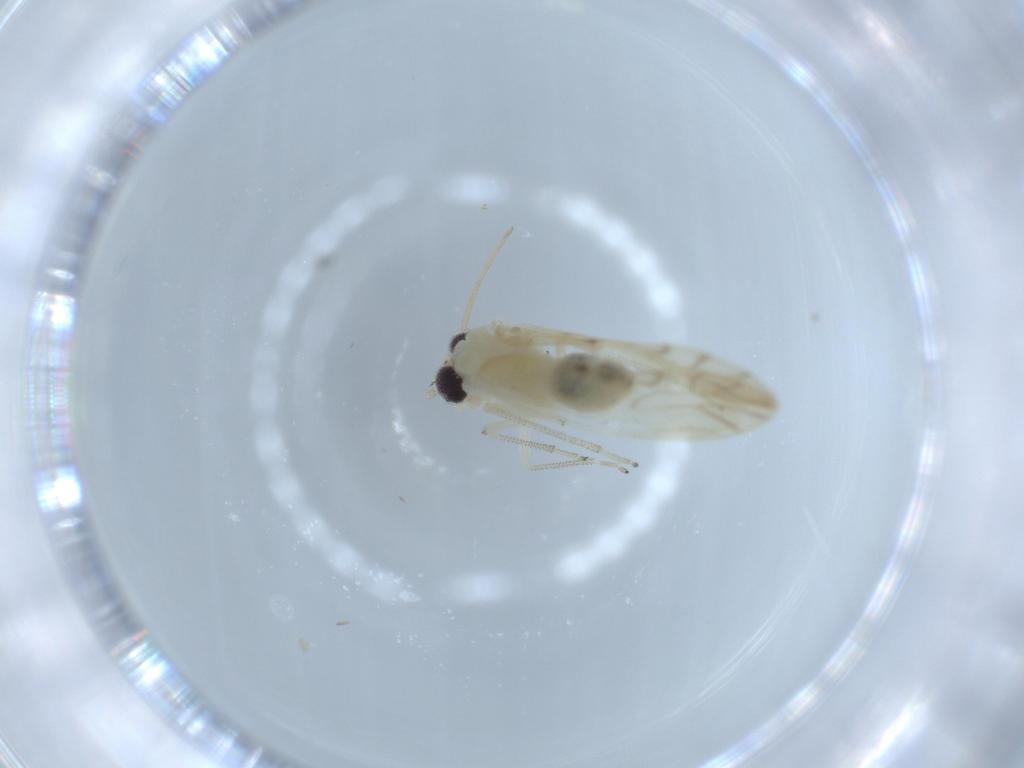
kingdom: Animalia
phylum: Arthropoda
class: Insecta
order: Psocodea
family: Caeciliusidae
